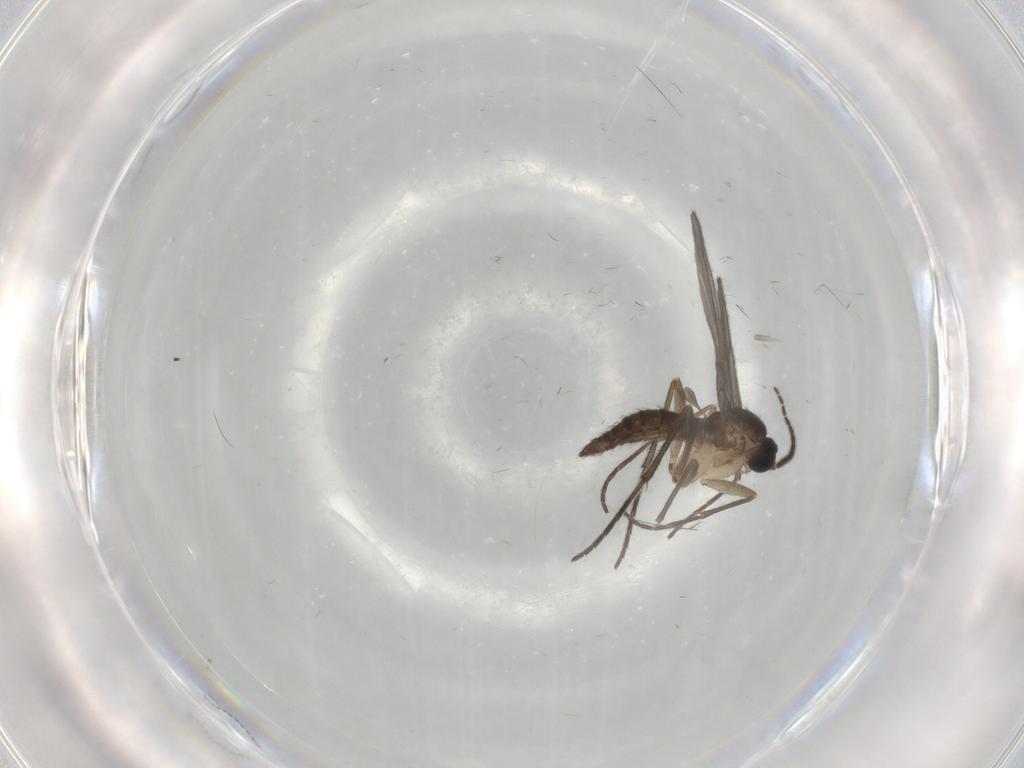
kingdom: Animalia
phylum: Arthropoda
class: Insecta
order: Diptera
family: Sciaridae
